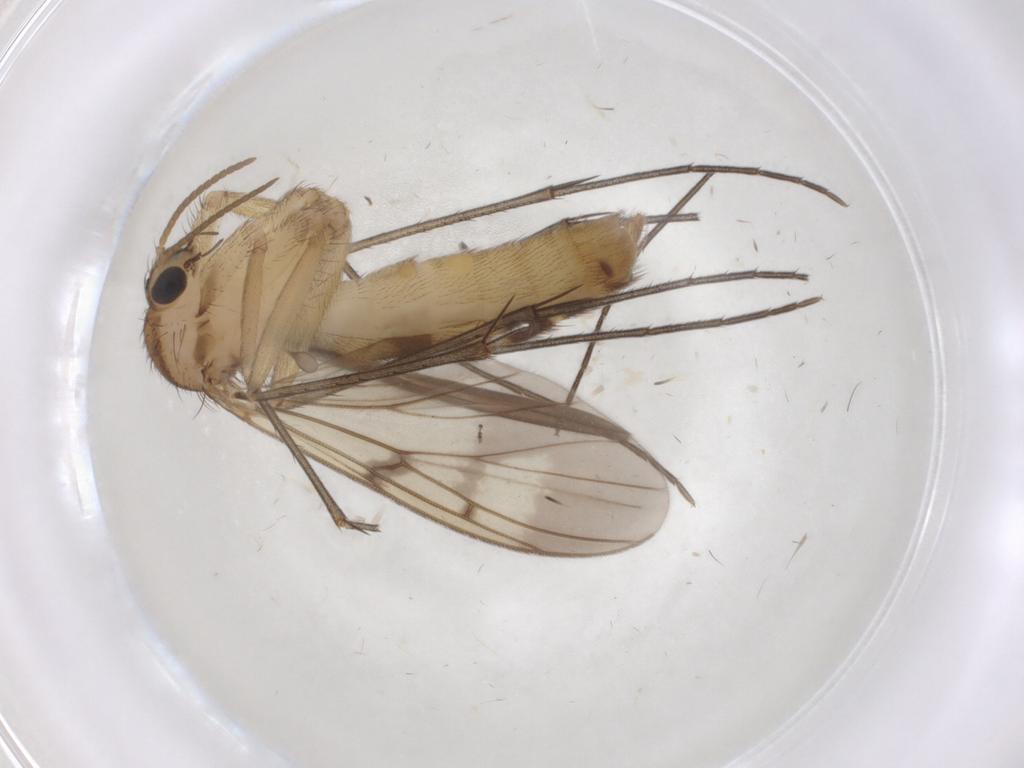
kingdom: Animalia
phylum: Arthropoda
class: Insecta
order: Diptera
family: Mycetophilidae
